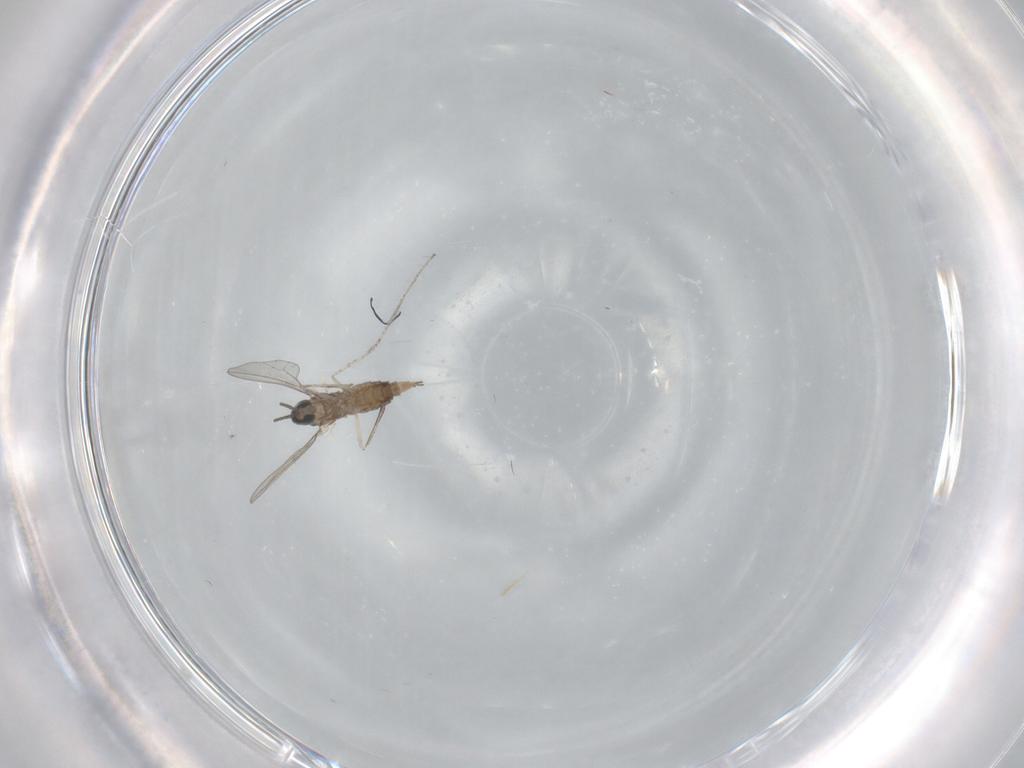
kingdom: Animalia
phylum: Arthropoda
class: Insecta
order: Diptera
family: Cecidomyiidae
